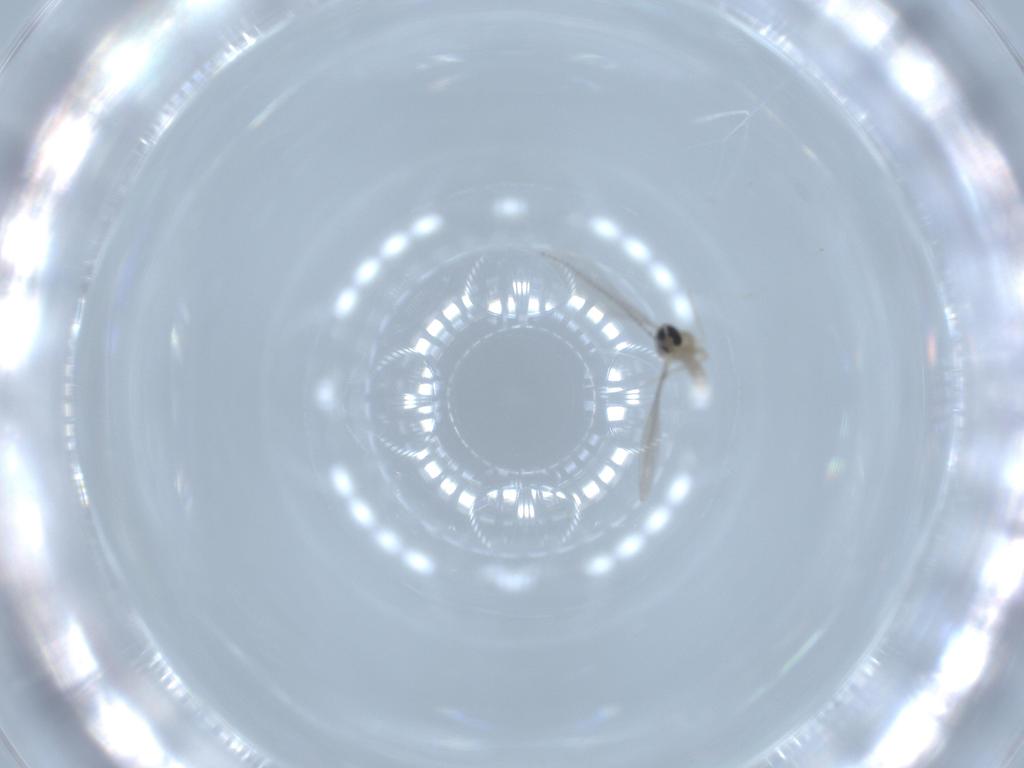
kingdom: Animalia
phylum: Arthropoda
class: Insecta
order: Diptera
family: Cecidomyiidae
